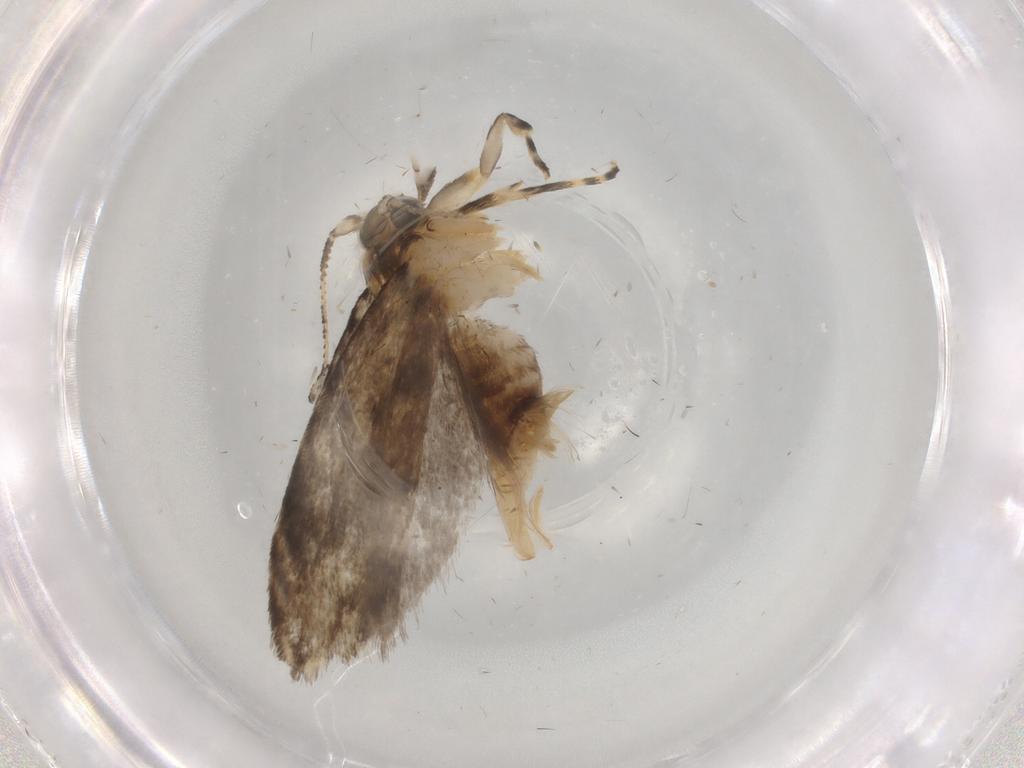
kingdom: Animalia
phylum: Arthropoda
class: Insecta
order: Lepidoptera
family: Tineidae
